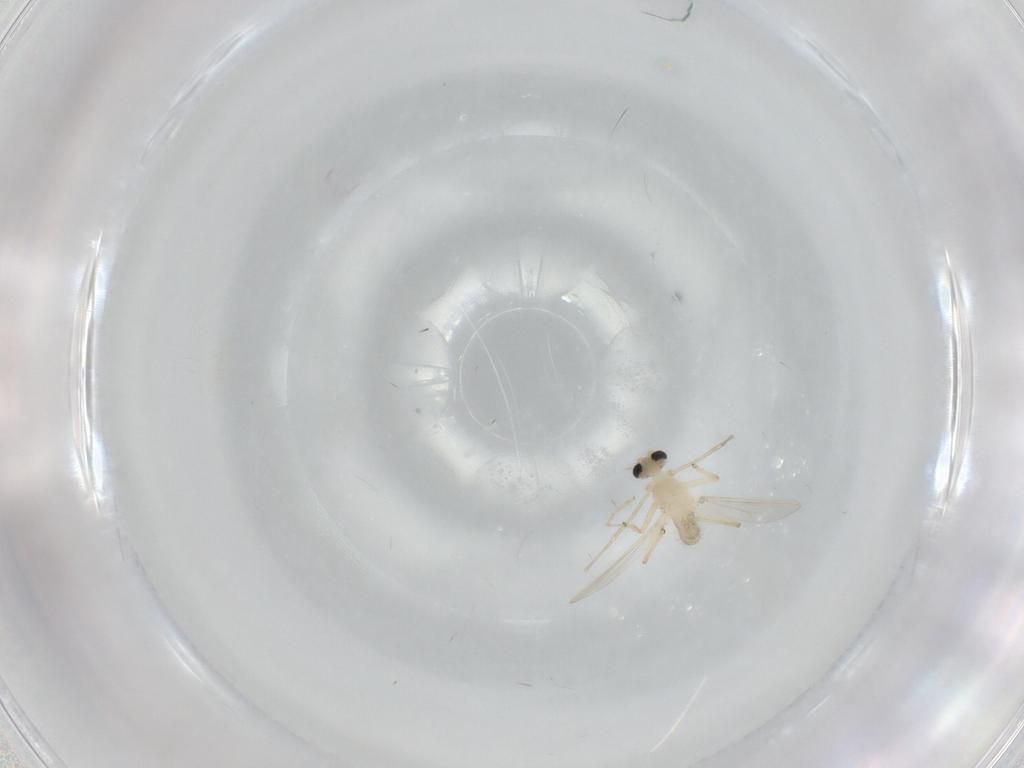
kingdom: Animalia
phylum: Arthropoda
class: Insecta
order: Diptera
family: Chironomidae
